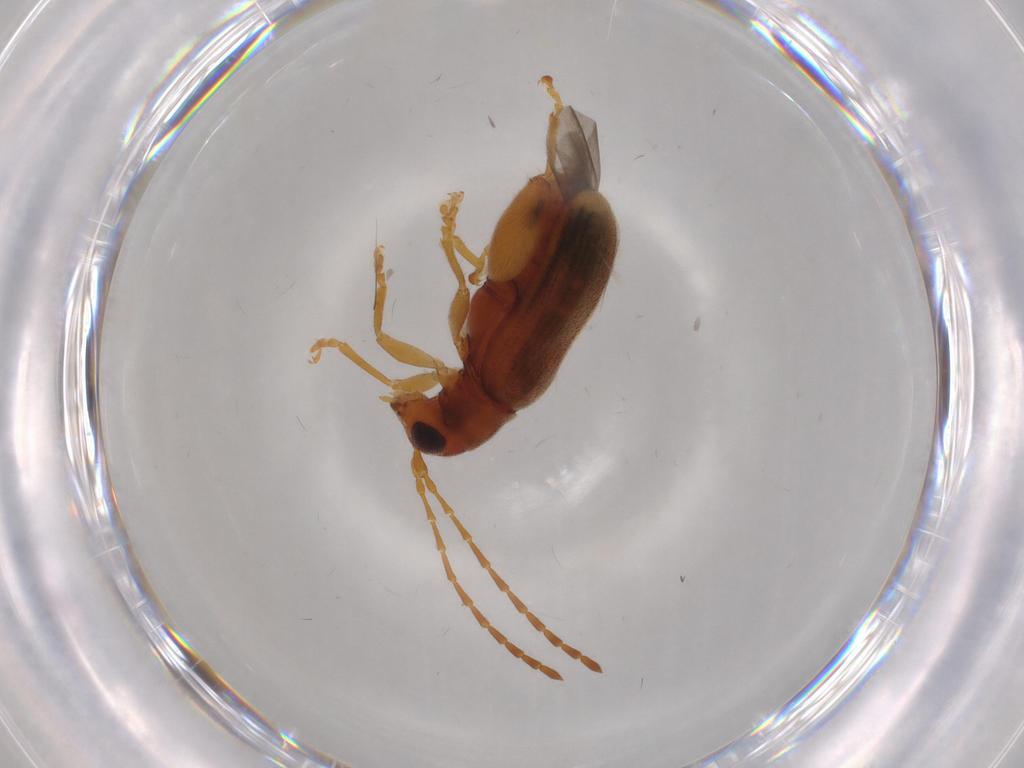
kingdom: Animalia
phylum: Arthropoda
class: Insecta
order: Coleoptera
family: Chrysomelidae
